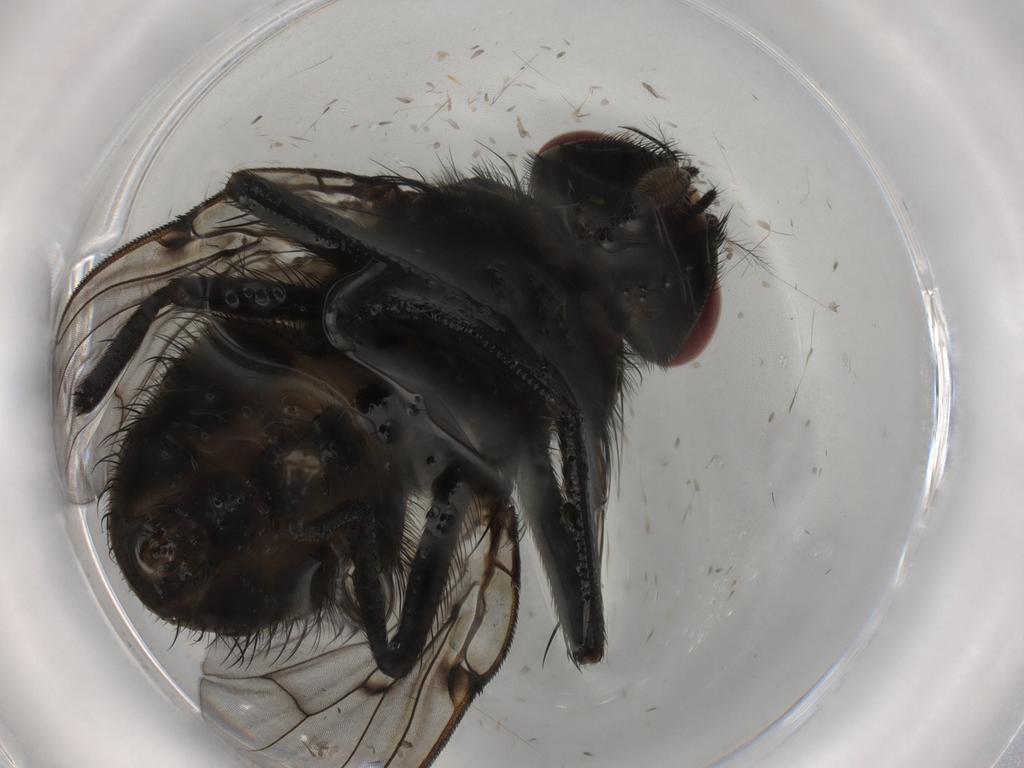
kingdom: Animalia
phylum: Arthropoda
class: Insecta
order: Diptera
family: Muscidae
